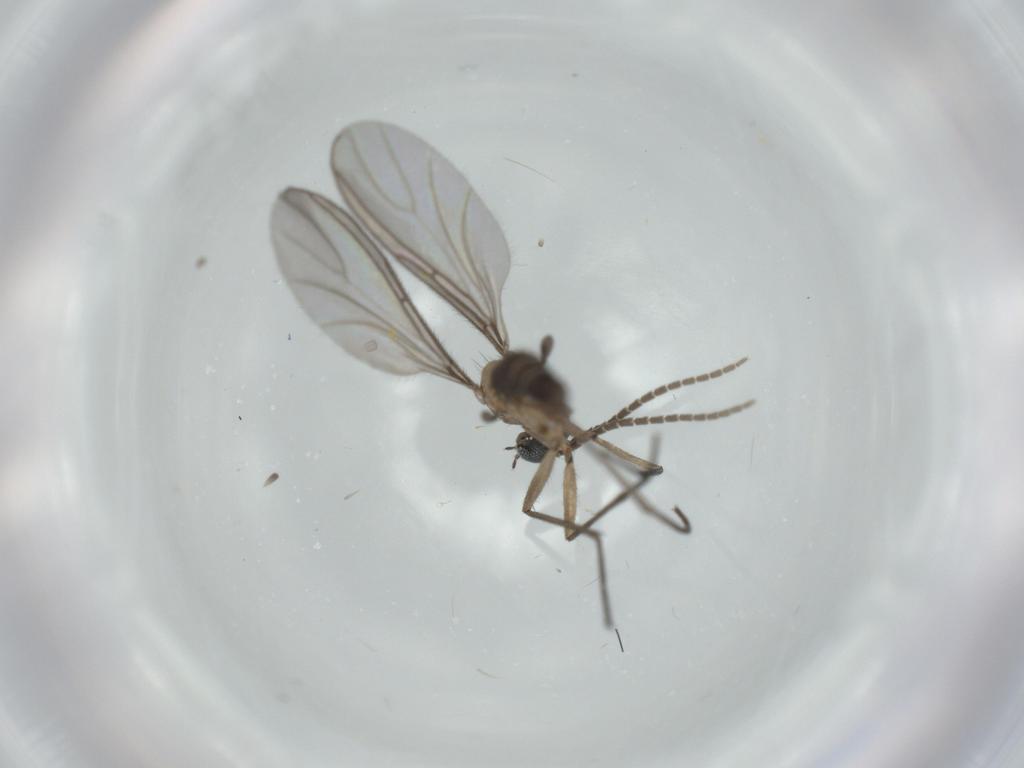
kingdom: Animalia
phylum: Arthropoda
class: Insecta
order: Diptera
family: Sciaridae
